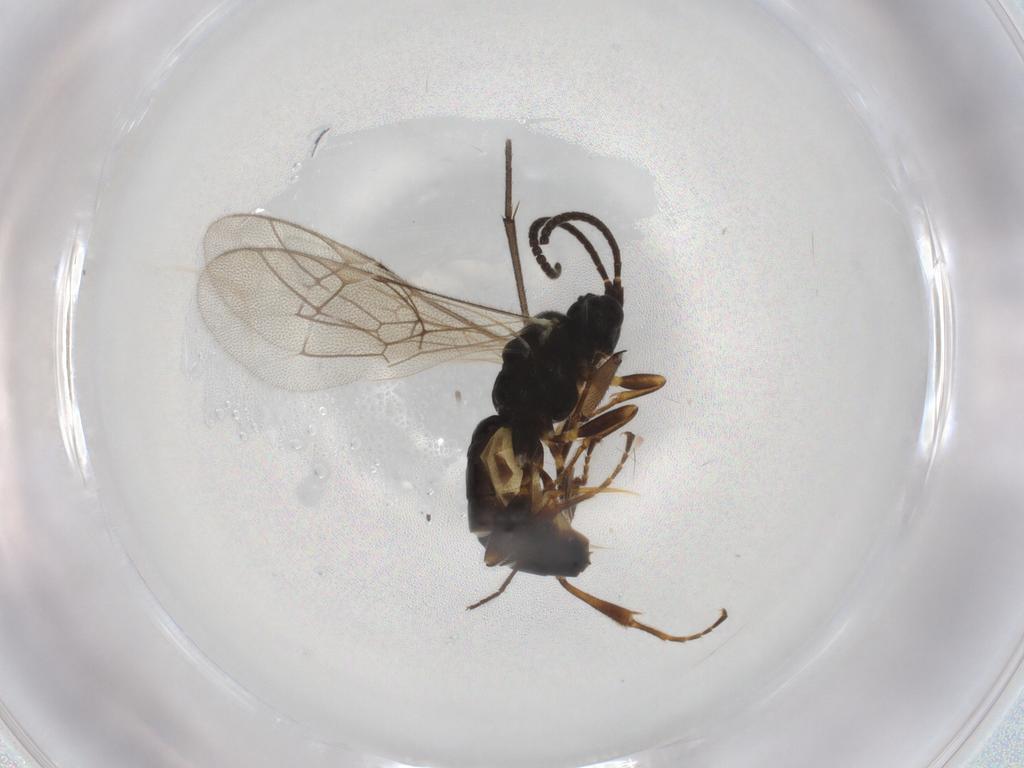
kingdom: Animalia
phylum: Arthropoda
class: Insecta
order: Hymenoptera
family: Ichneumonidae
